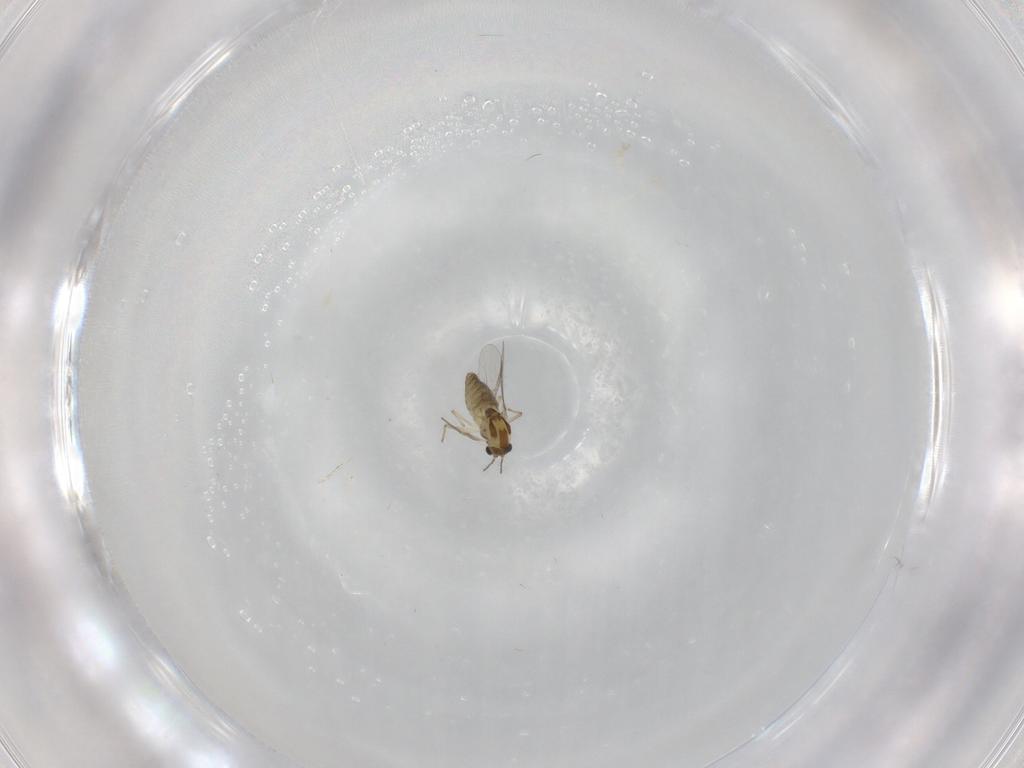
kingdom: Animalia
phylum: Arthropoda
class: Insecta
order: Diptera
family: Chironomidae
